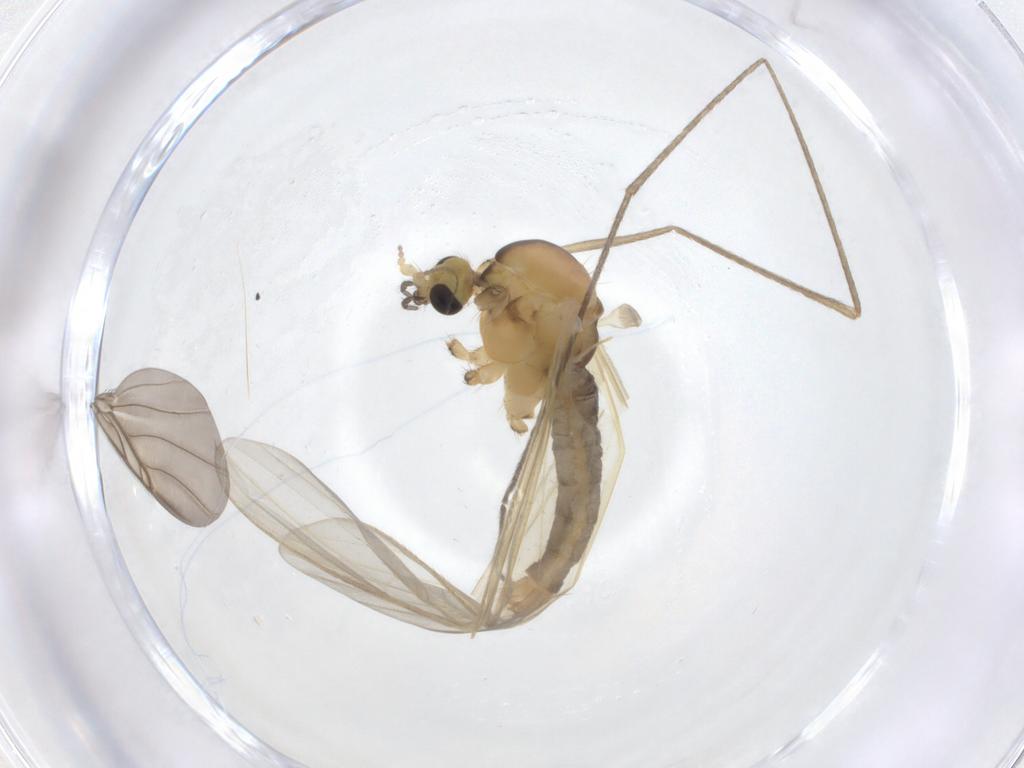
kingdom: Animalia
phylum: Arthropoda
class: Insecta
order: Diptera
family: Limoniidae
